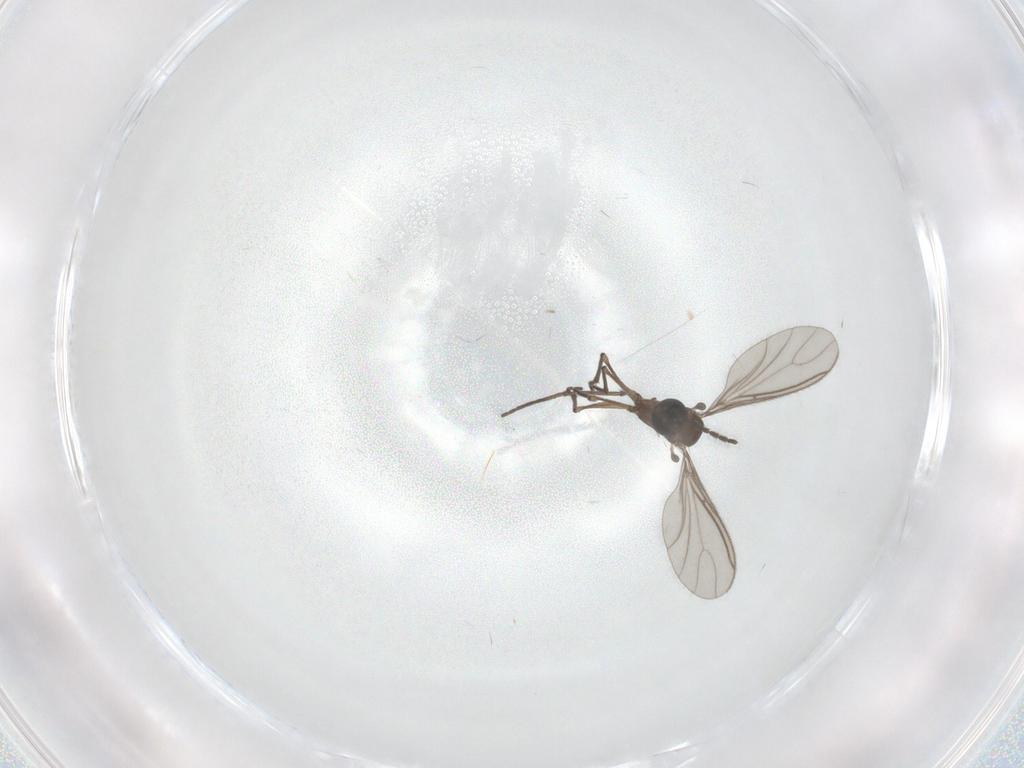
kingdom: Animalia
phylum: Arthropoda
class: Insecta
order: Diptera
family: Sciaridae
